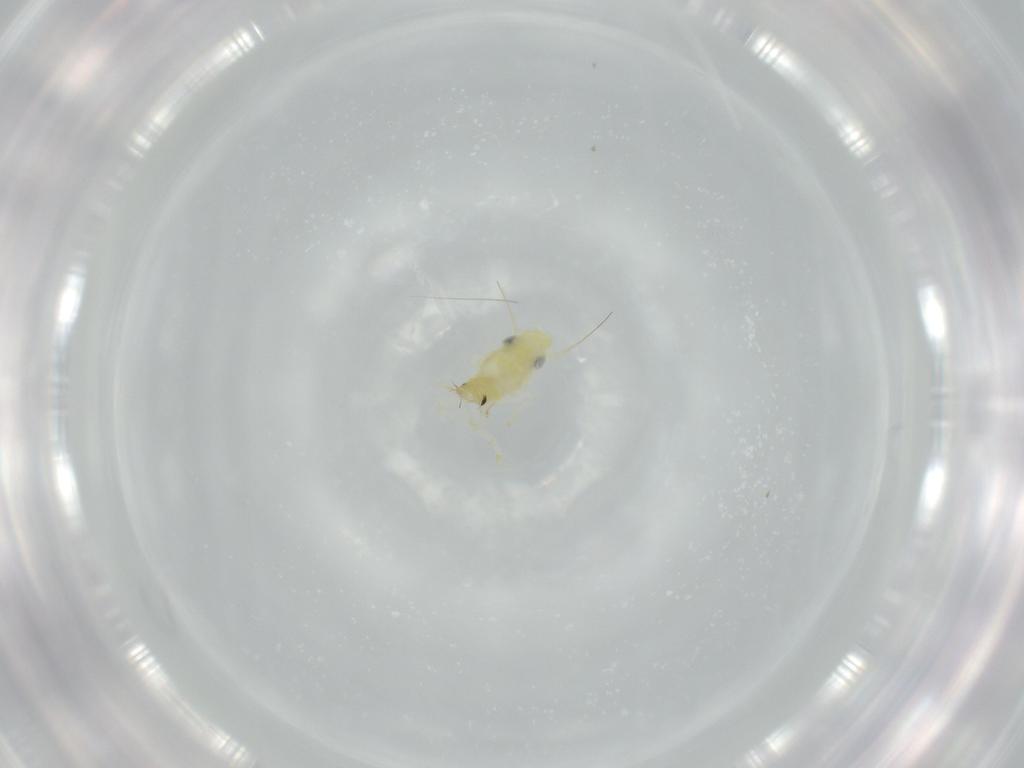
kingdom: Animalia
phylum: Arthropoda
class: Insecta
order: Hemiptera
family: Cicadellidae
